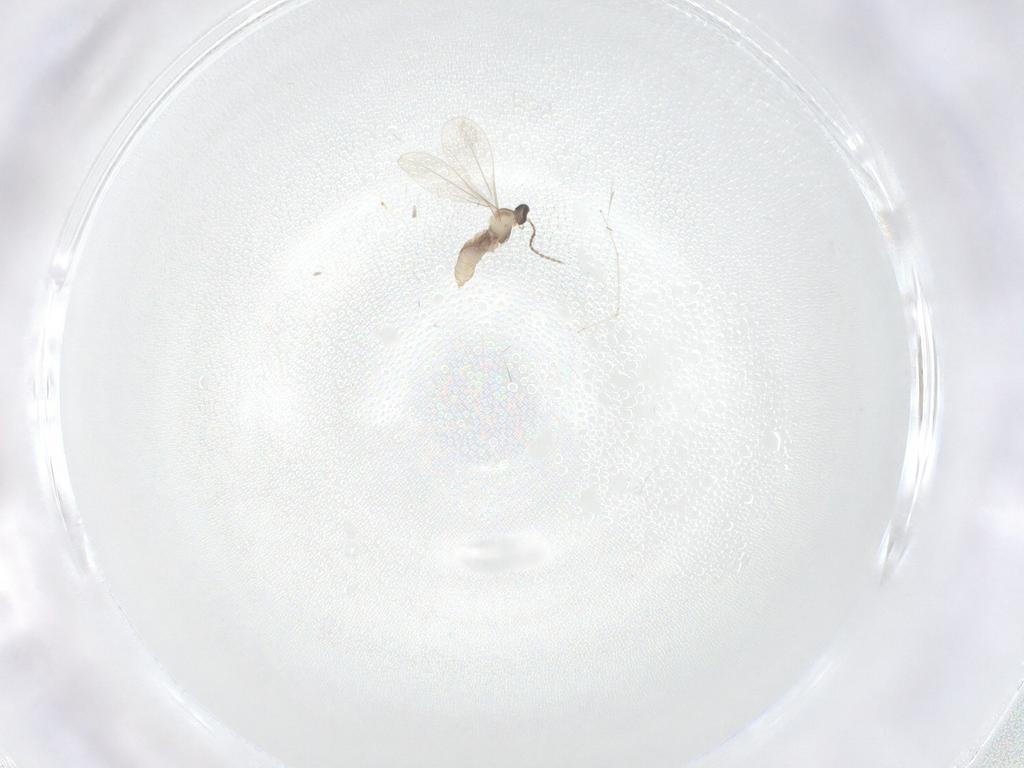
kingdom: Animalia
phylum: Arthropoda
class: Insecta
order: Diptera
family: Cecidomyiidae
